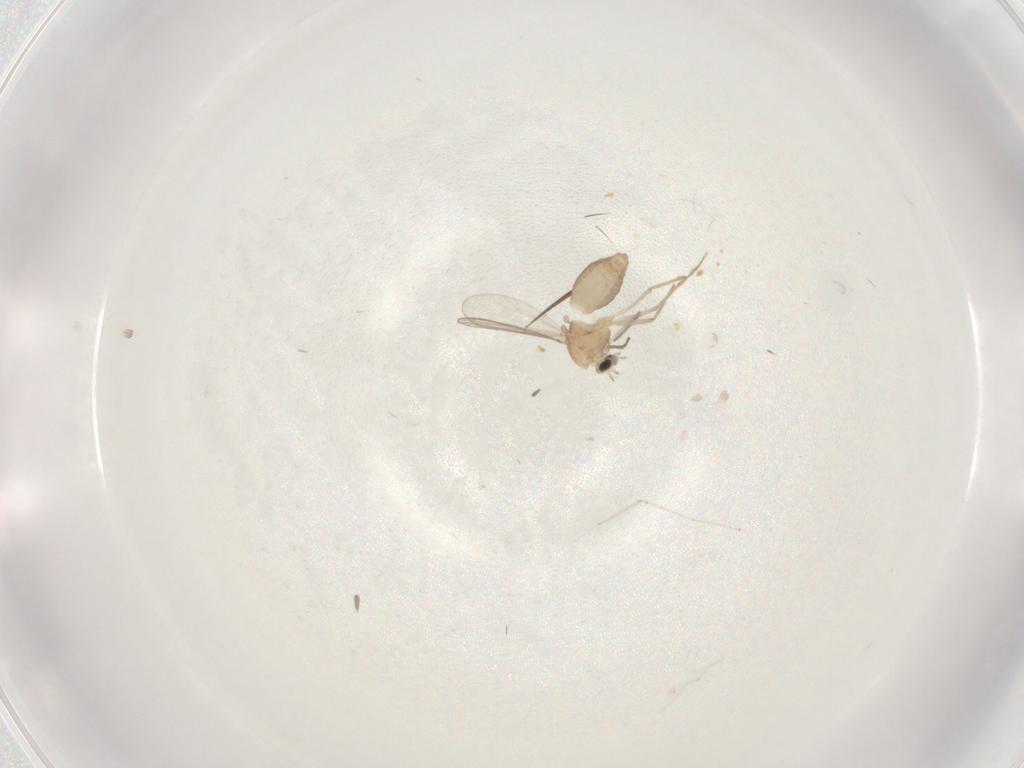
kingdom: Animalia
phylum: Arthropoda
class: Insecta
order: Diptera
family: Chironomidae
